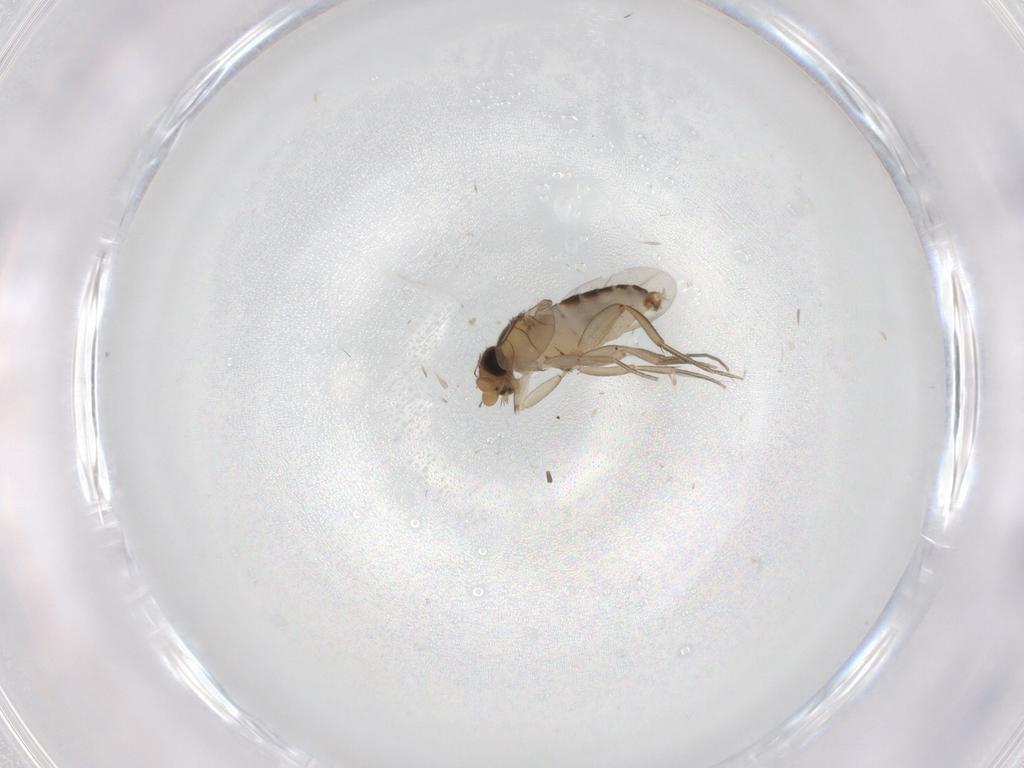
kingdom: Animalia
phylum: Arthropoda
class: Insecta
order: Diptera
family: Phoridae
